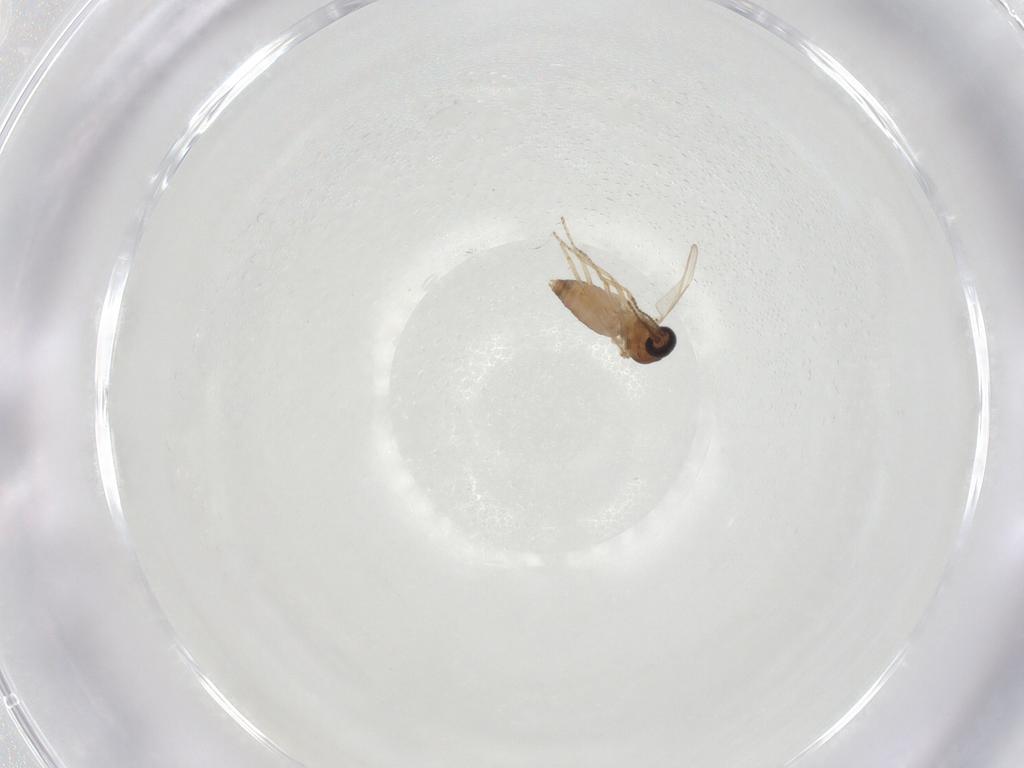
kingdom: Animalia
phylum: Arthropoda
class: Insecta
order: Diptera
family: Ceratopogonidae
